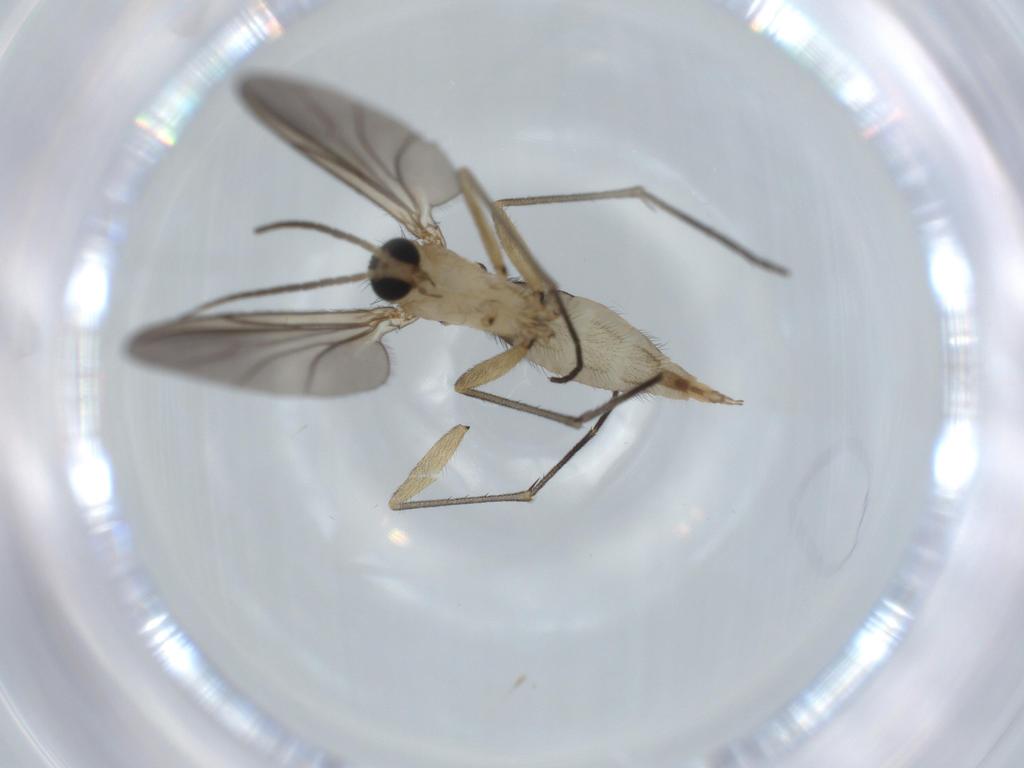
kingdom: Animalia
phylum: Arthropoda
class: Insecta
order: Diptera
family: Sciaridae
